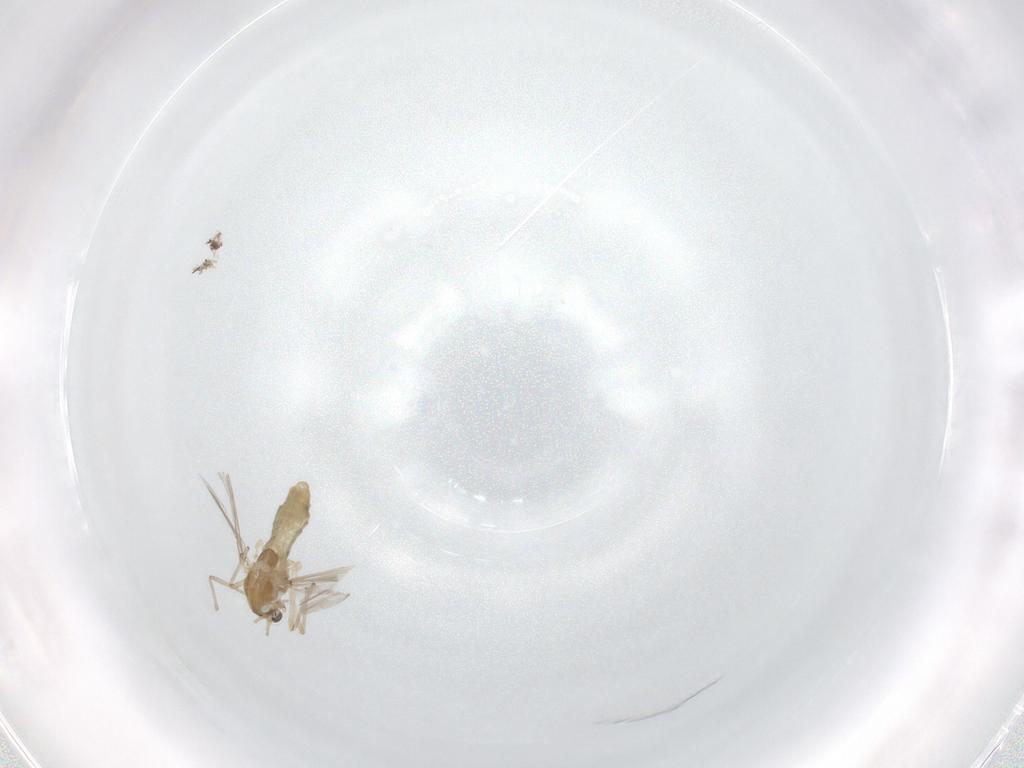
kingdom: Animalia
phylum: Arthropoda
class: Insecta
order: Diptera
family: Chironomidae
